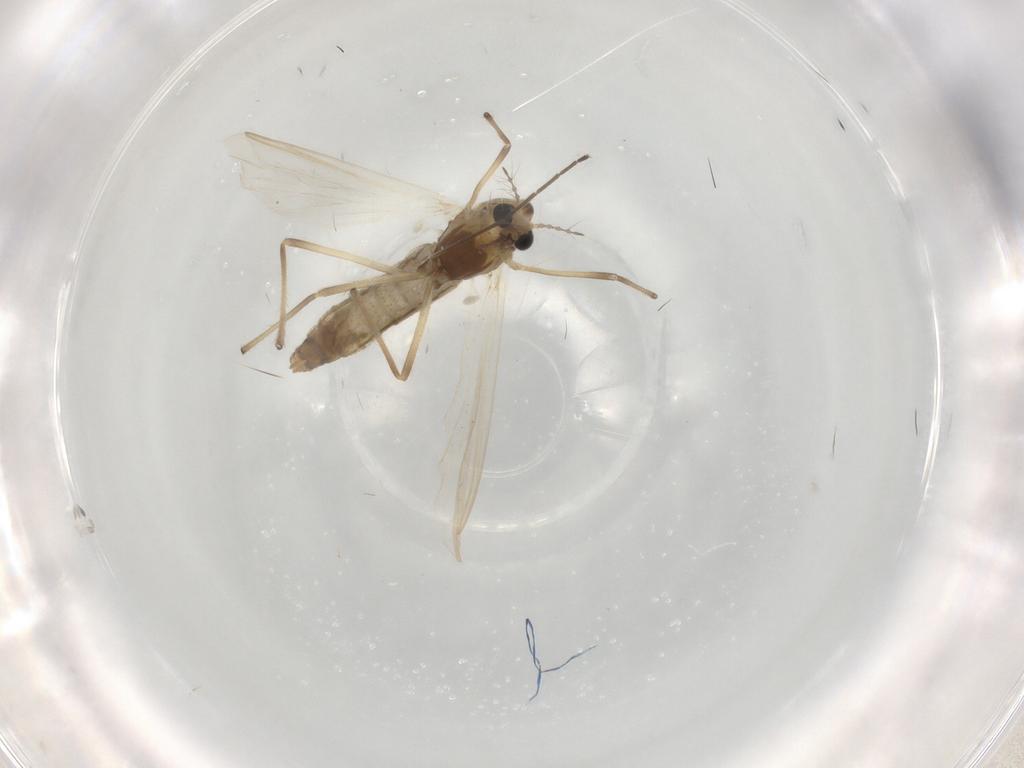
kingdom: Animalia
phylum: Arthropoda
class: Insecta
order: Diptera
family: Chironomidae
